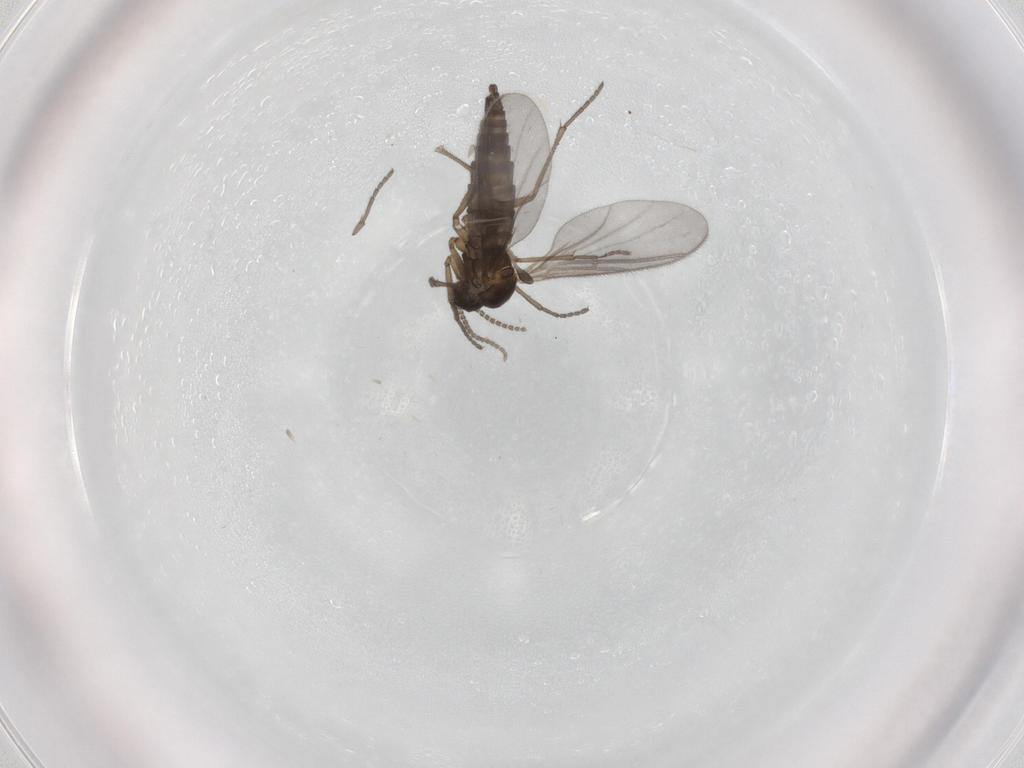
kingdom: Animalia
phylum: Arthropoda
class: Insecta
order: Diptera
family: Sciaridae
